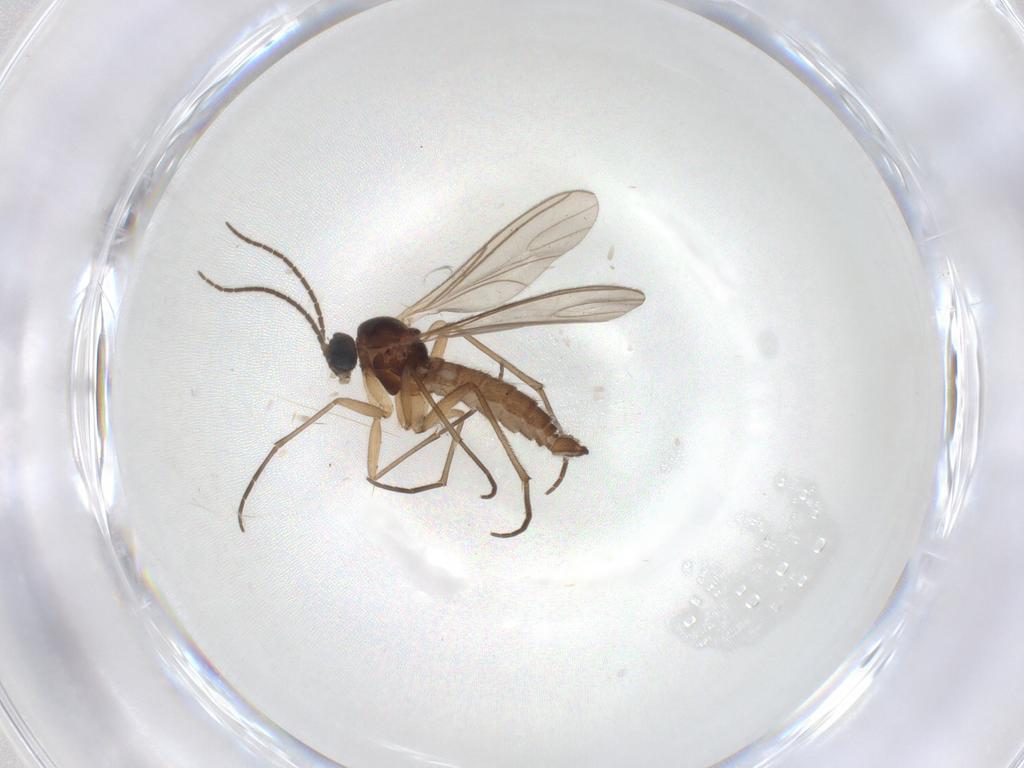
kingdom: Animalia
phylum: Arthropoda
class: Insecta
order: Diptera
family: Sciaridae
